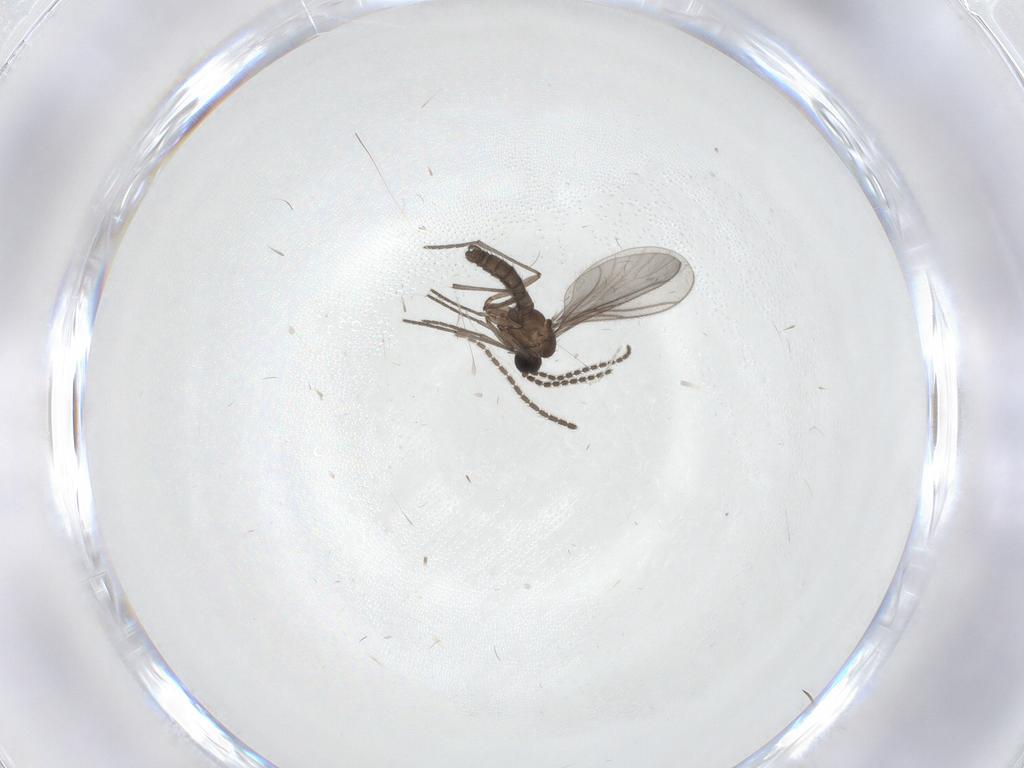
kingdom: Animalia
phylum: Arthropoda
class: Insecta
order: Diptera
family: Sciaridae
